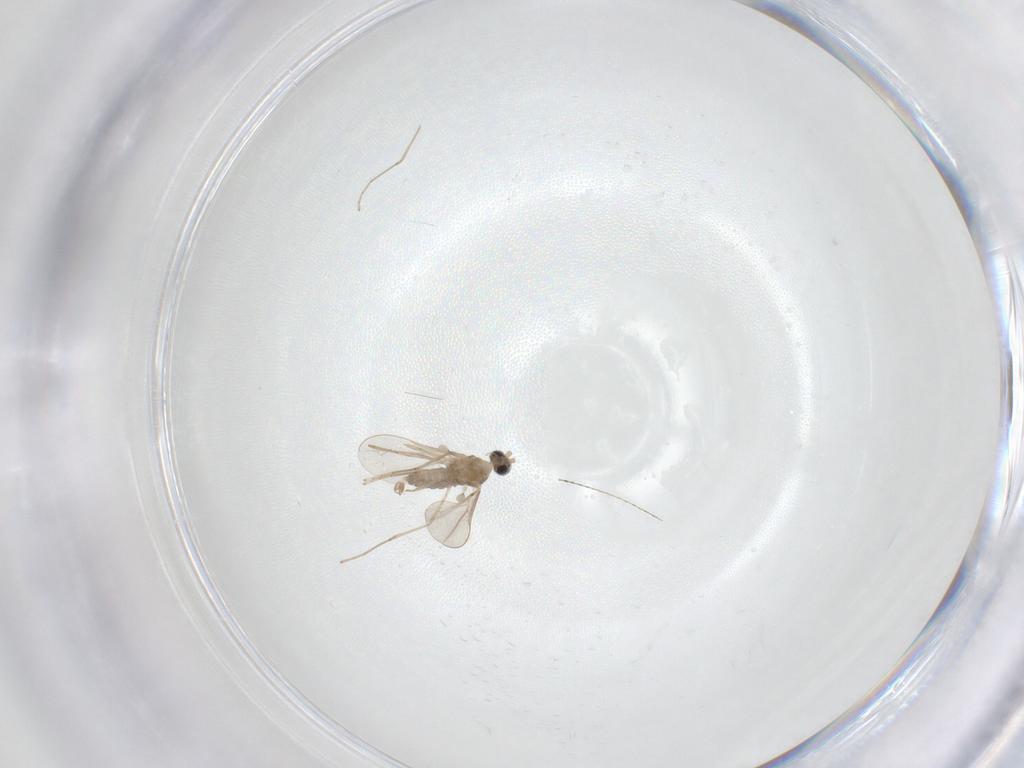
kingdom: Animalia
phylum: Arthropoda
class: Insecta
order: Diptera
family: Cecidomyiidae
